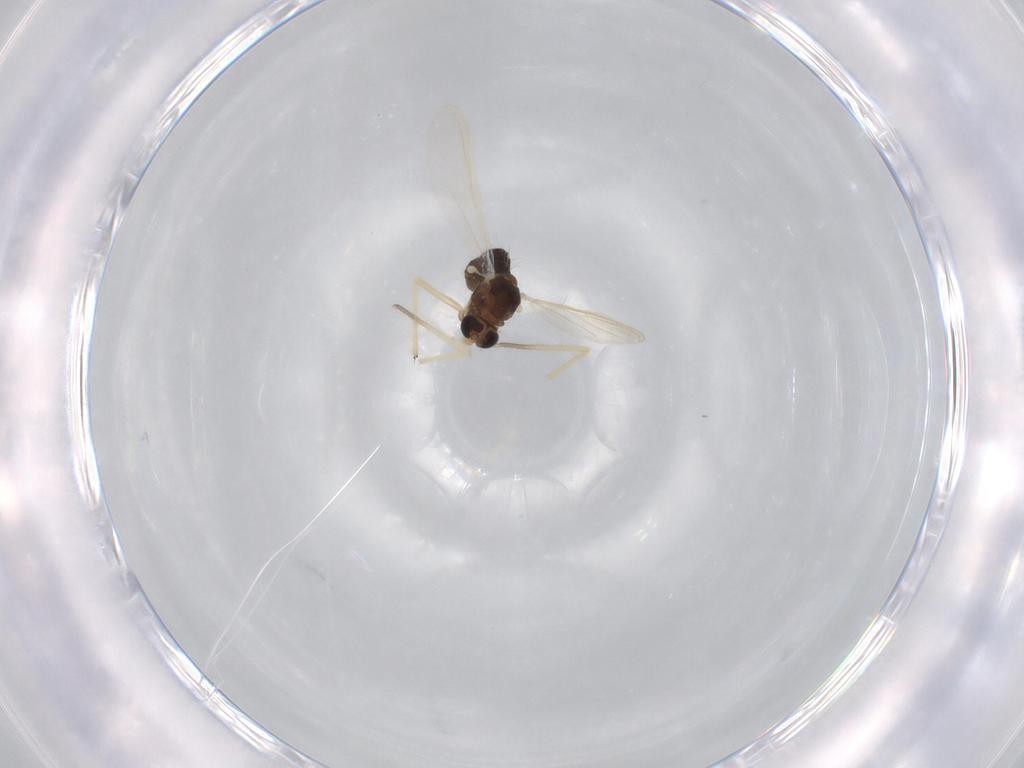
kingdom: Animalia
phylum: Arthropoda
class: Insecta
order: Diptera
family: Chironomidae
